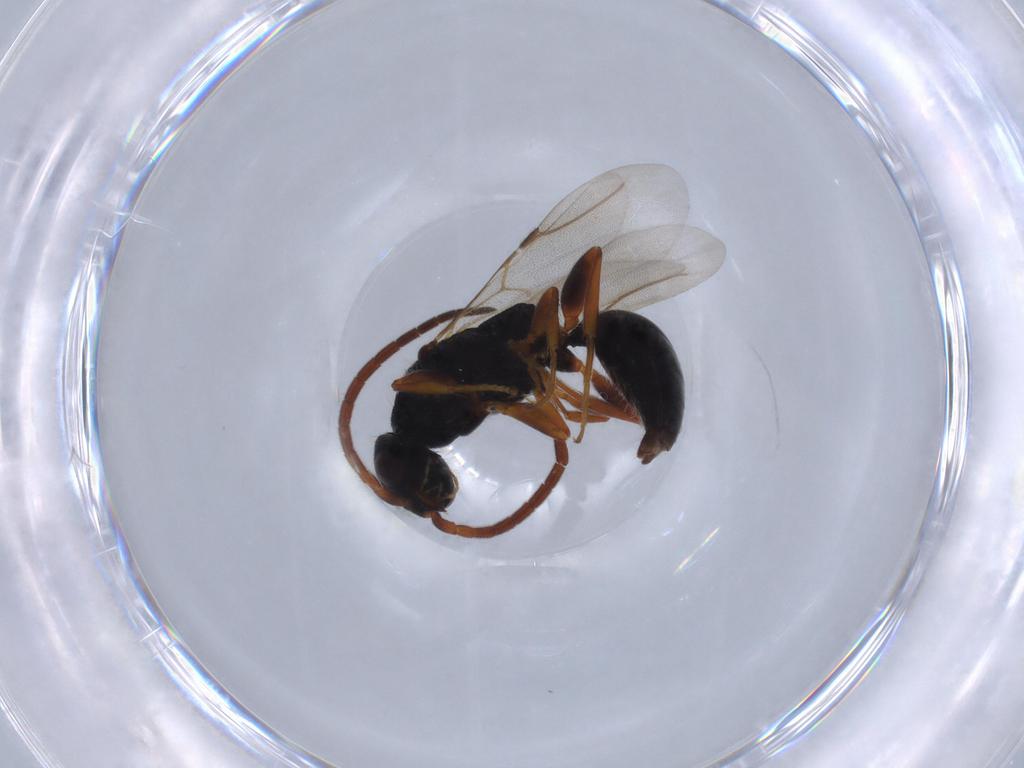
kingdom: Animalia
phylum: Arthropoda
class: Insecta
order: Hymenoptera
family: Bethylidae
